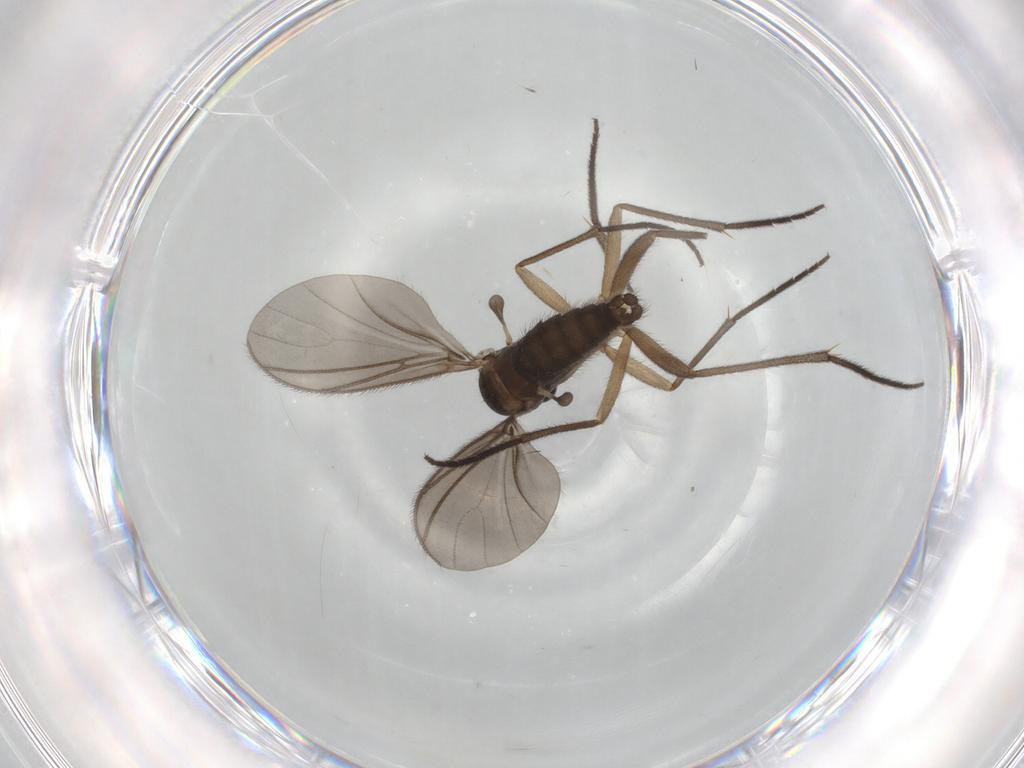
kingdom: Animalia
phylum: Arthropoda
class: Insecta
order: Diptera
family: Sciaridae
